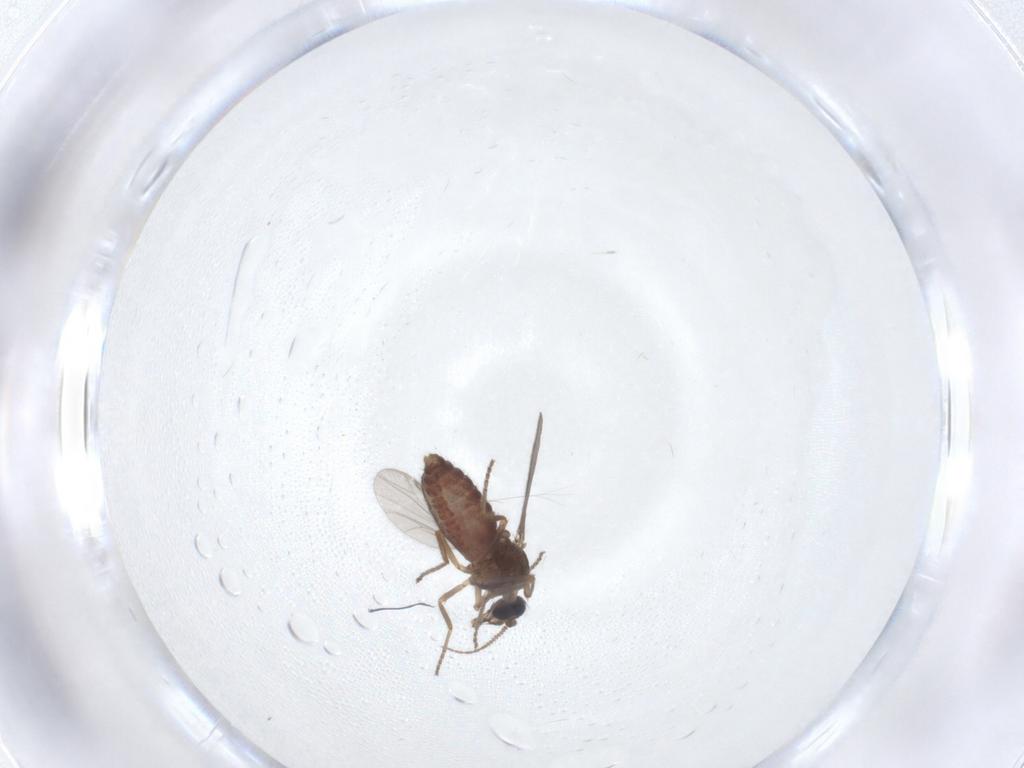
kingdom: Animalia
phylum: Arthropoda
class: Insecta
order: Diptera
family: Ceratopogonidae
